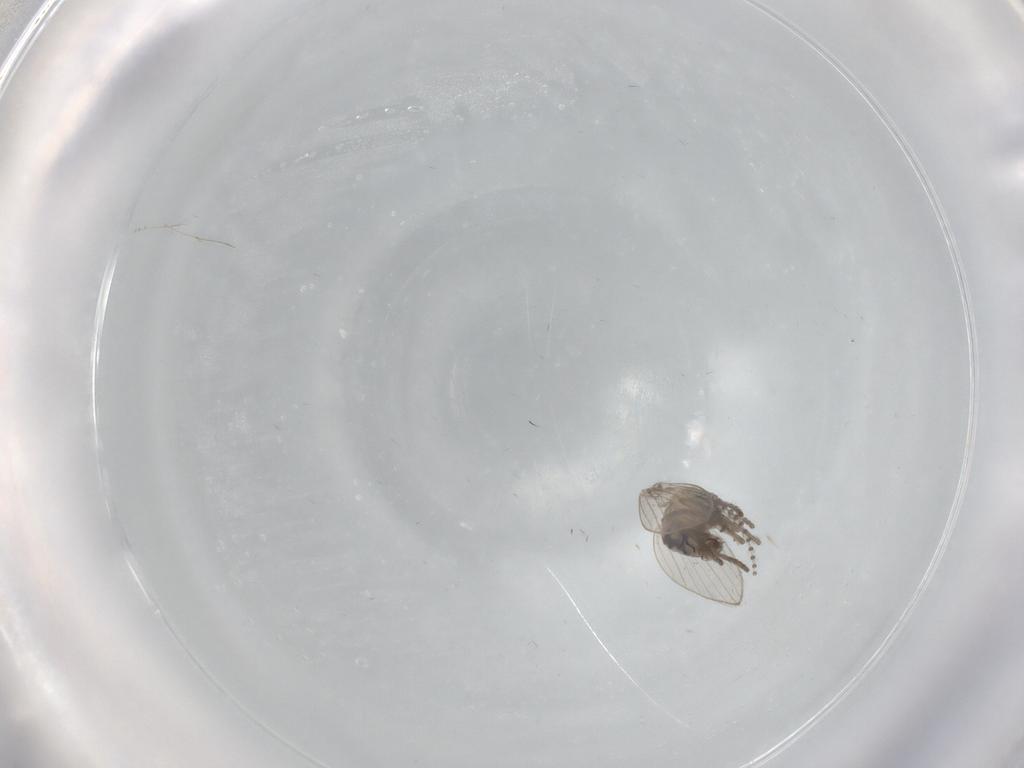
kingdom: Animalia
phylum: Arthropoda
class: Insecta
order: Diptera
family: Psychodidae
